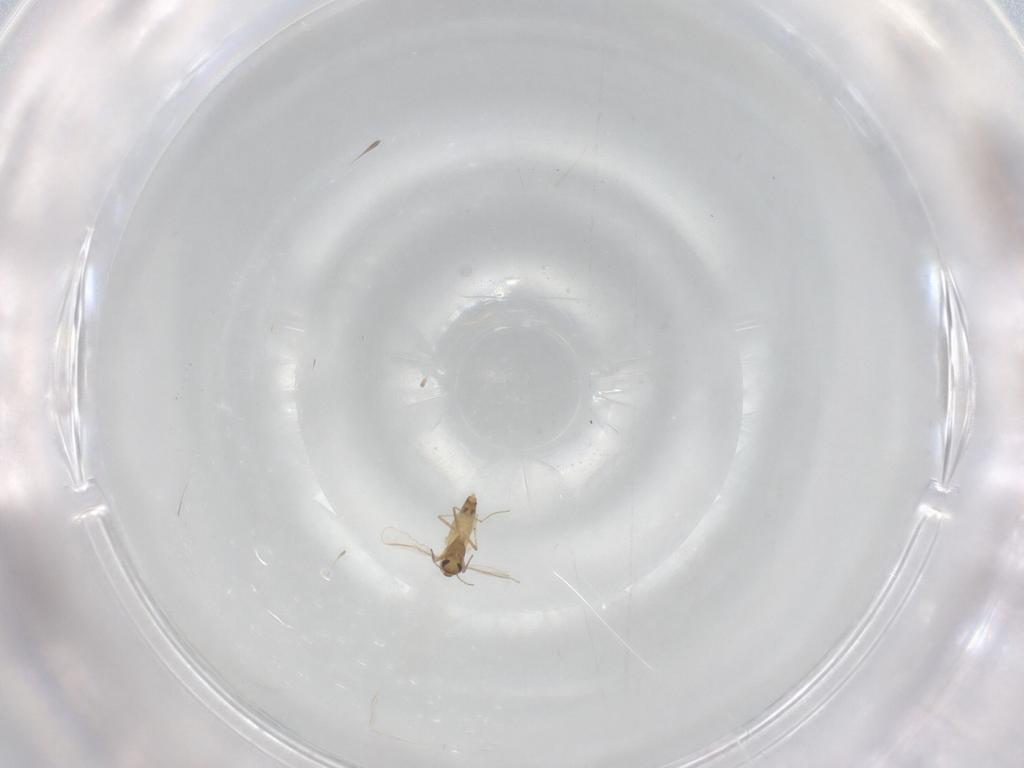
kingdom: Animalia
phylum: Arthropoda
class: Insecta
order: Diptera
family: Chironomidae
